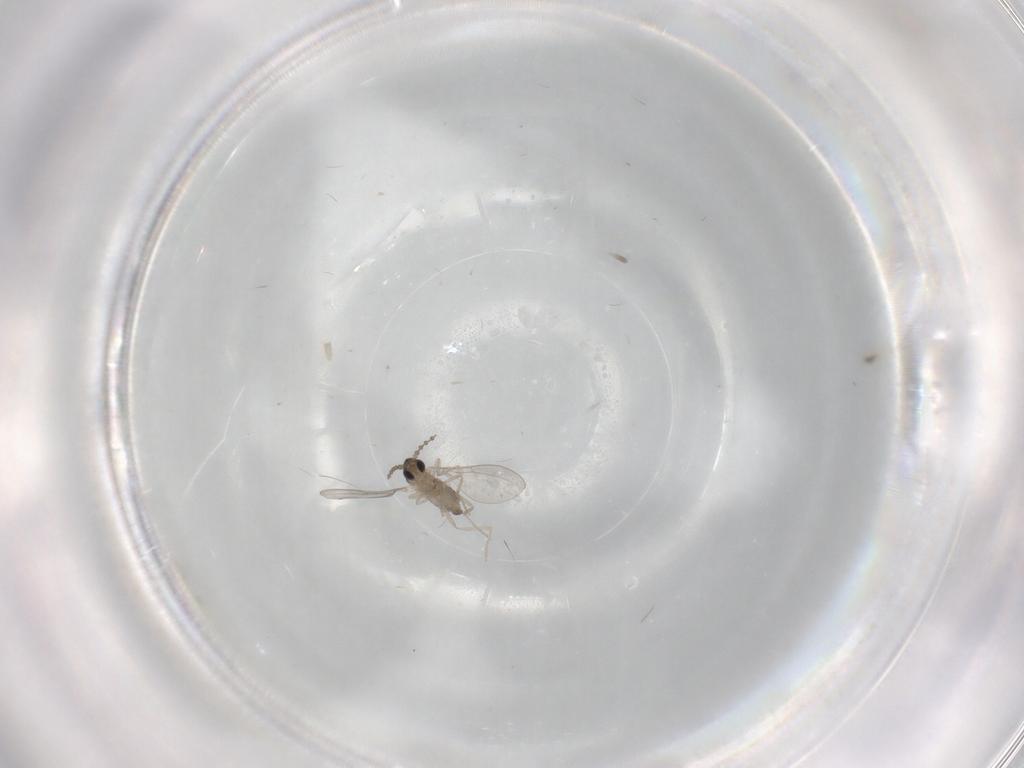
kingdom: Animalia
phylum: Arthropoda
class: Insecta
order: Diptera
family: Cecidomyiidae
